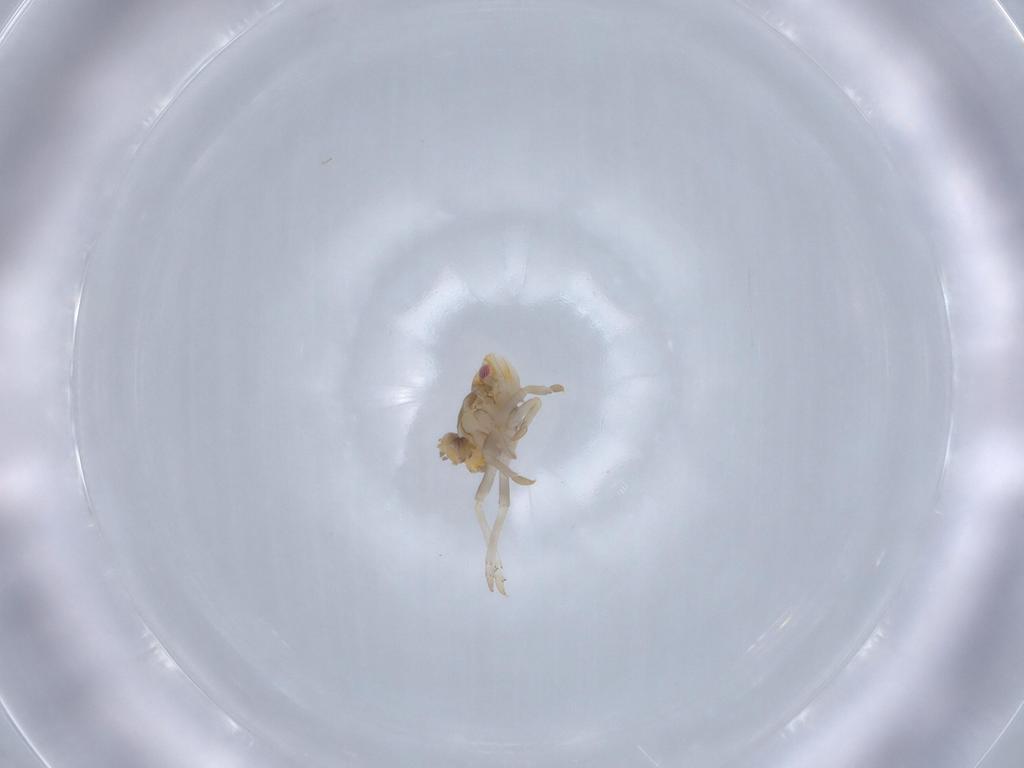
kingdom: Animalia
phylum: Arthropoda
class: Insecta
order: Hemiptera
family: Ricaniidae
